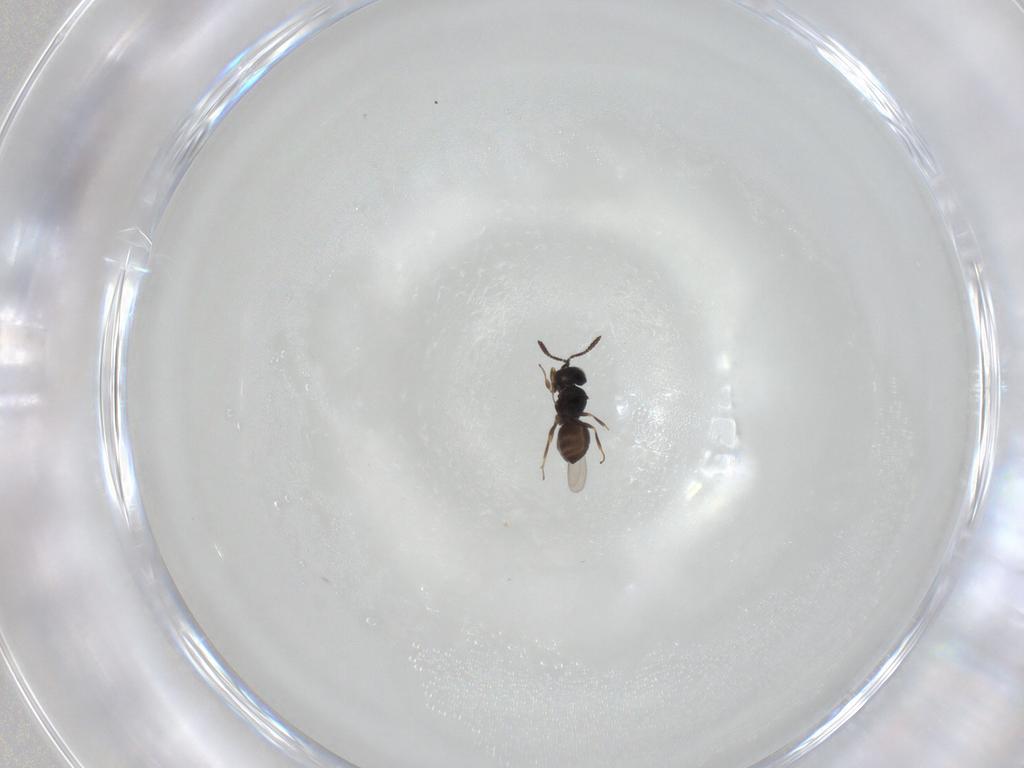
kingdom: Animalia
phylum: Arthropoda
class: Insecta
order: Hymenoptera
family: Scelionidae
